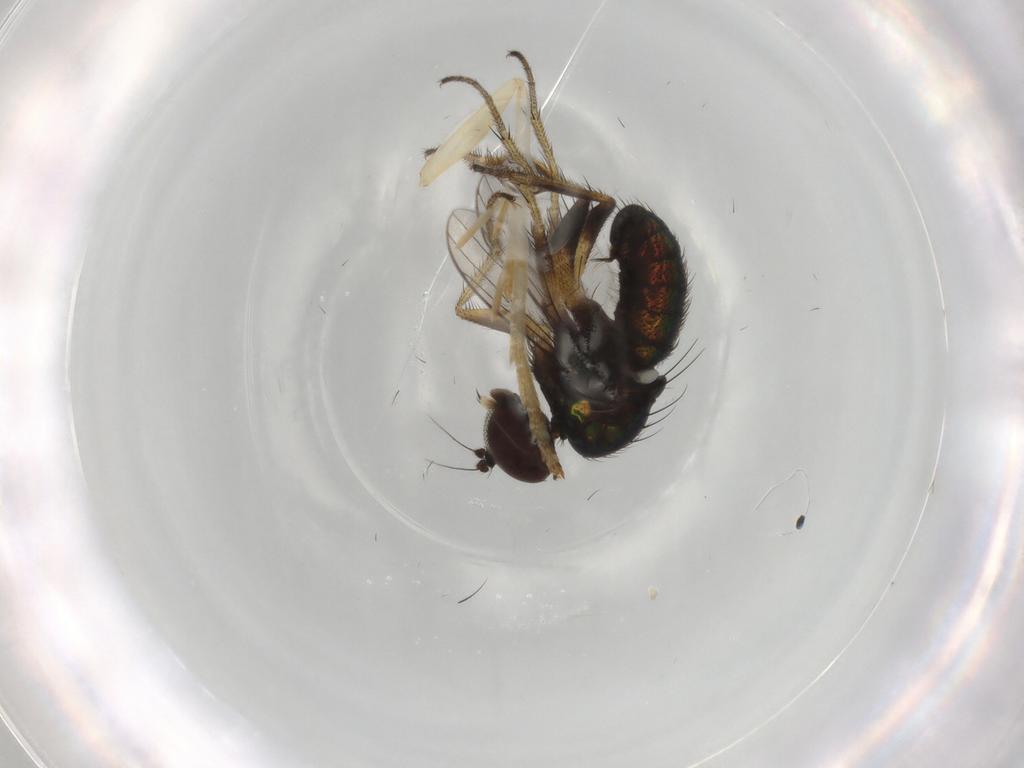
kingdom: Animalia
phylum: Arthropoda
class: Insecta
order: Diptera
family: Dolichopodidae
